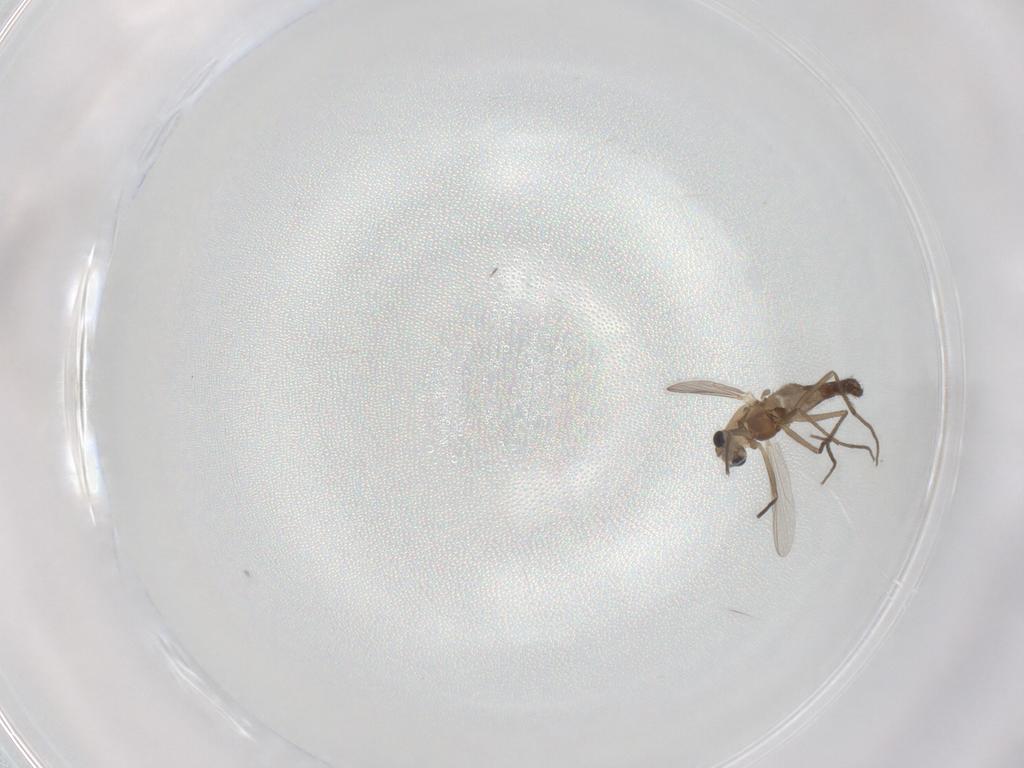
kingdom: Animalia
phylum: Arthropoda
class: Insecta
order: Diptera
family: Chironomidae
